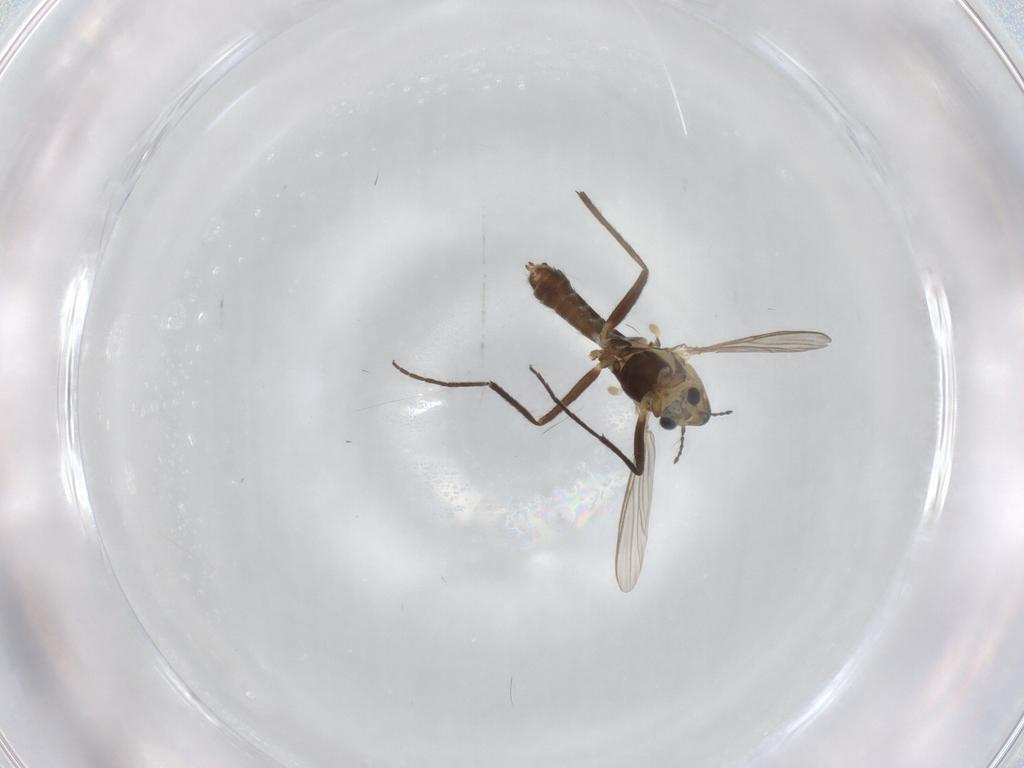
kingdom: Animalia
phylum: Arthropoda
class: Insecta
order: Diptera
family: Chironomidae
